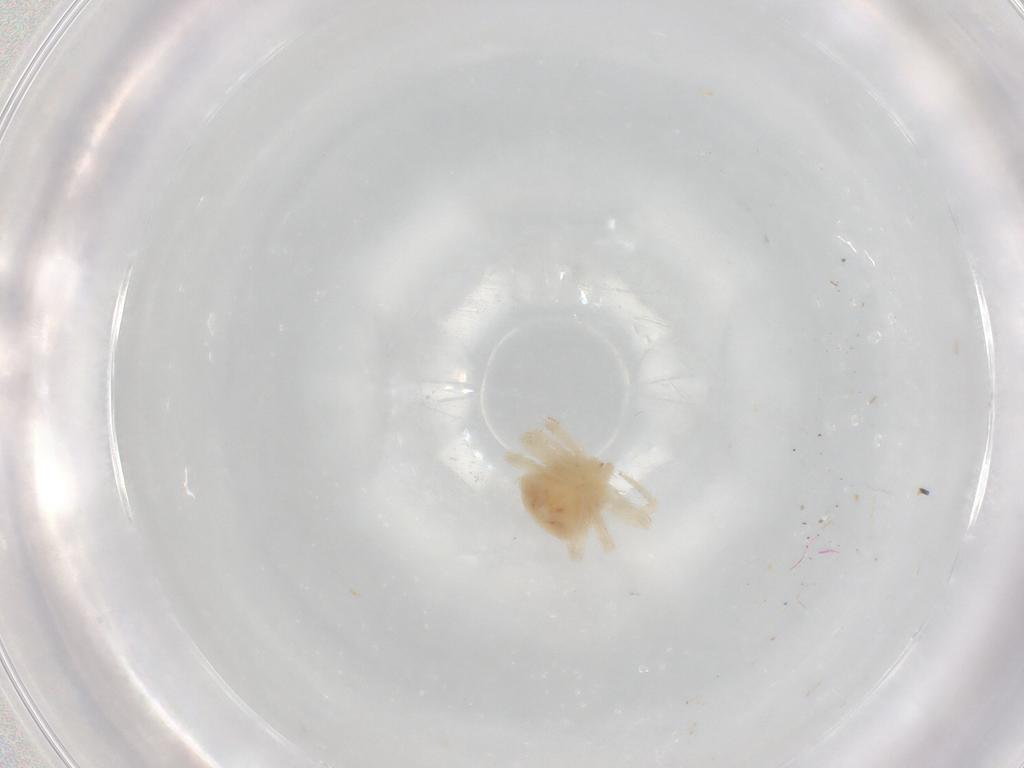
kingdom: Animalia
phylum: Arthropoda
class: Arachnida
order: Trombidiformes
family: Anystidae
